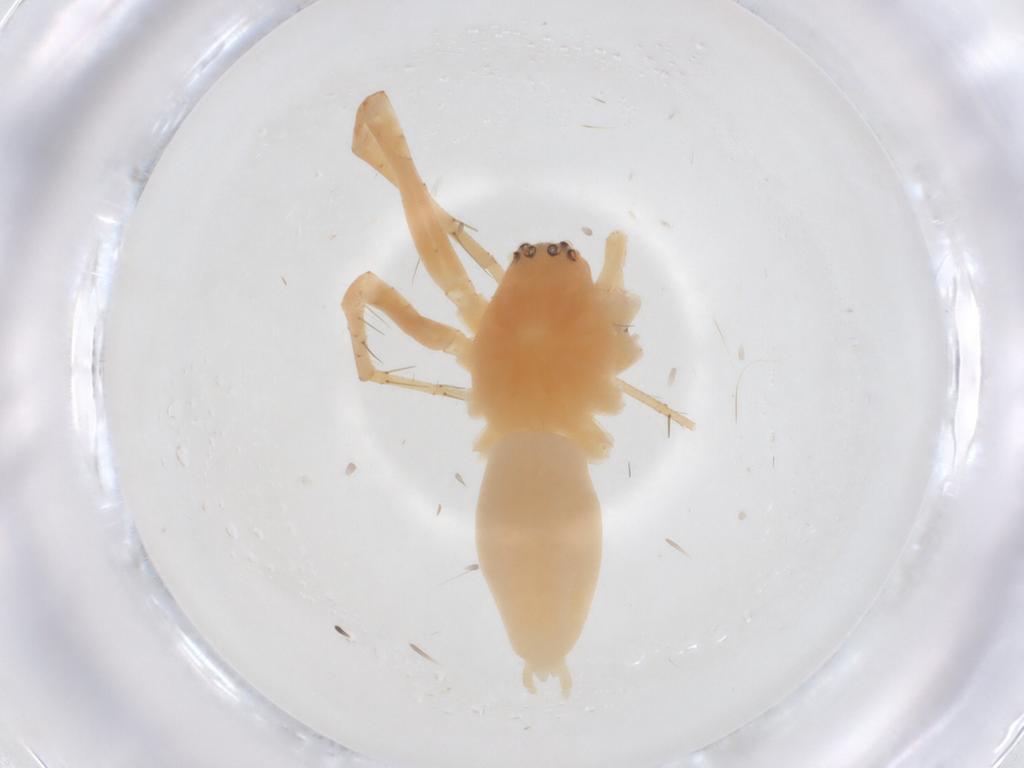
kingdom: Animalia
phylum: Arthropoda
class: Arachnida
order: Araneae
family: Anyphaenidae
